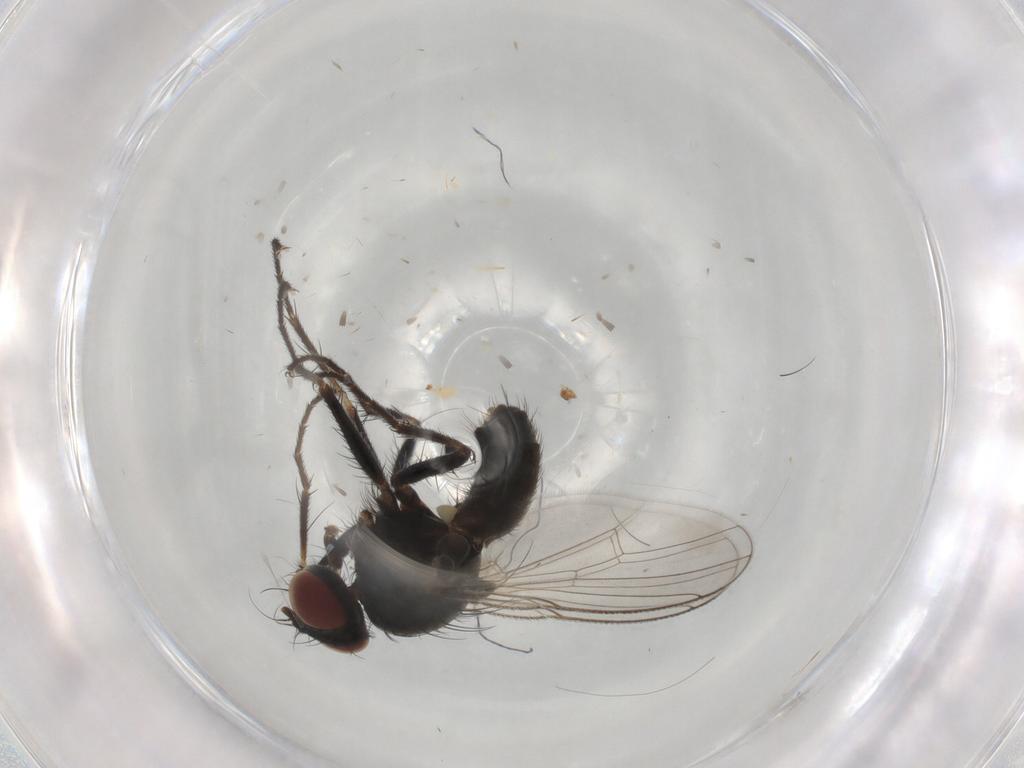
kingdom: Animalia
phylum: Arthropoda
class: Insecta
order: Diptera
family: Muscidae
